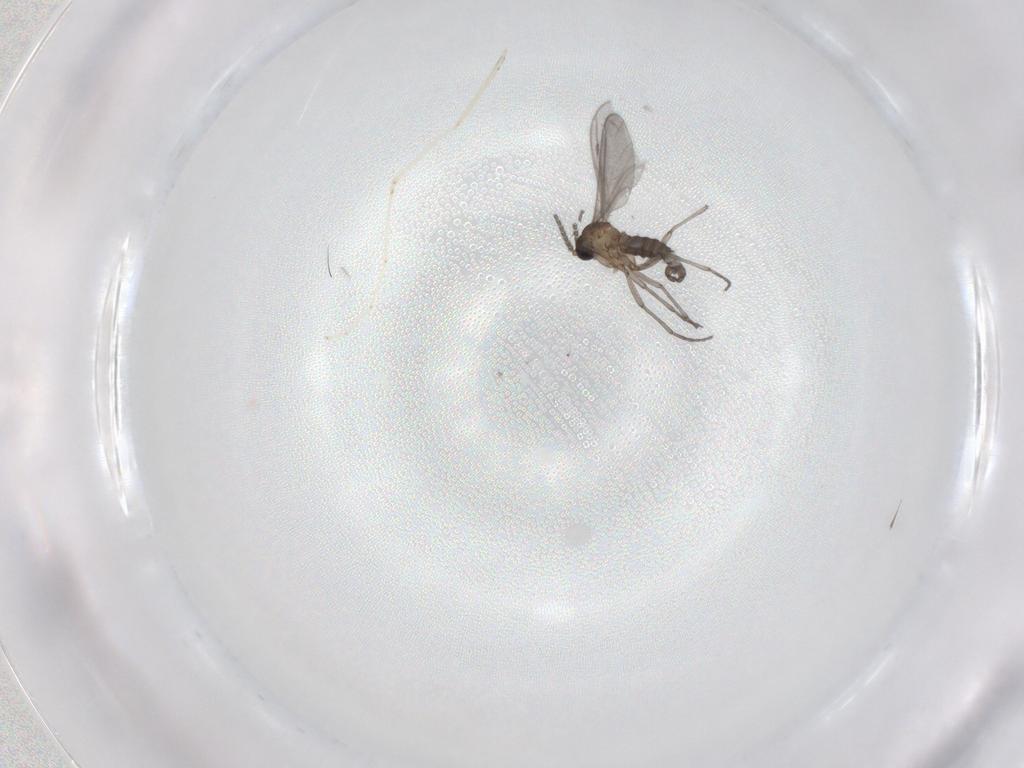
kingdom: Animalia
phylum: Arthropoda
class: Insecta
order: Diptera
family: Sciaridae
